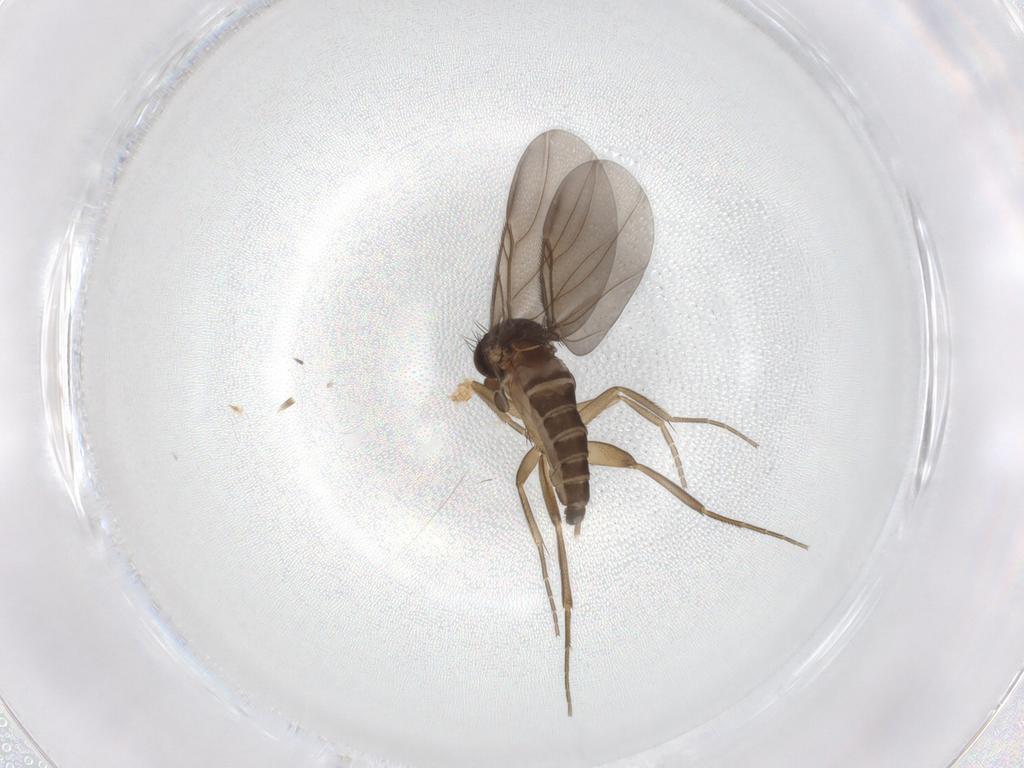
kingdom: Animalia
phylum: Arthropoda
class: Insecta
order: Diptera
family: Phoridae
